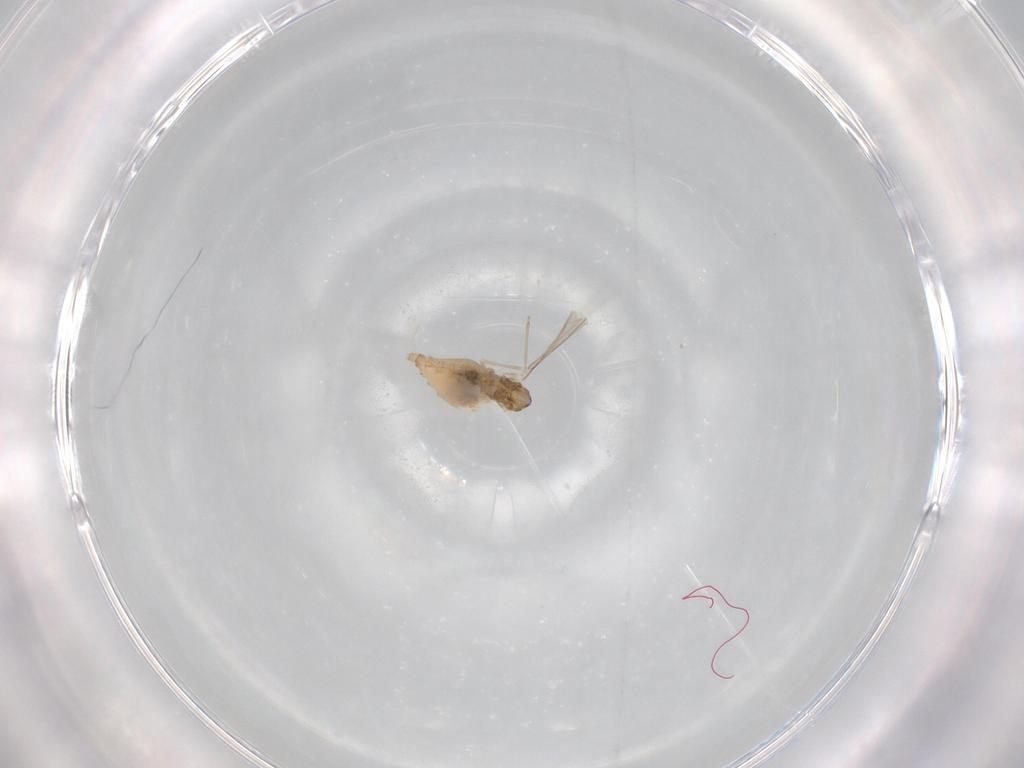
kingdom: Animalia
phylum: Arthropoda
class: Insecta
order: Diptera
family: Cecidomyiidae
